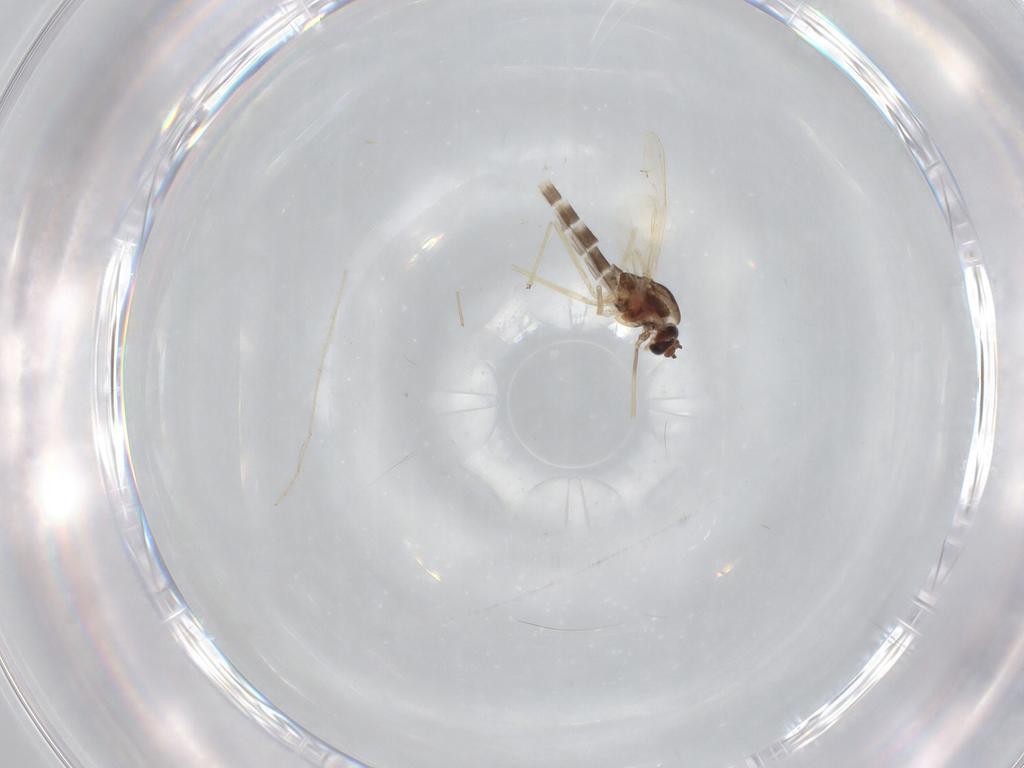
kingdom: Animalia
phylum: Arthropoda
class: Insecta
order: Diptera
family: Chironomidae
